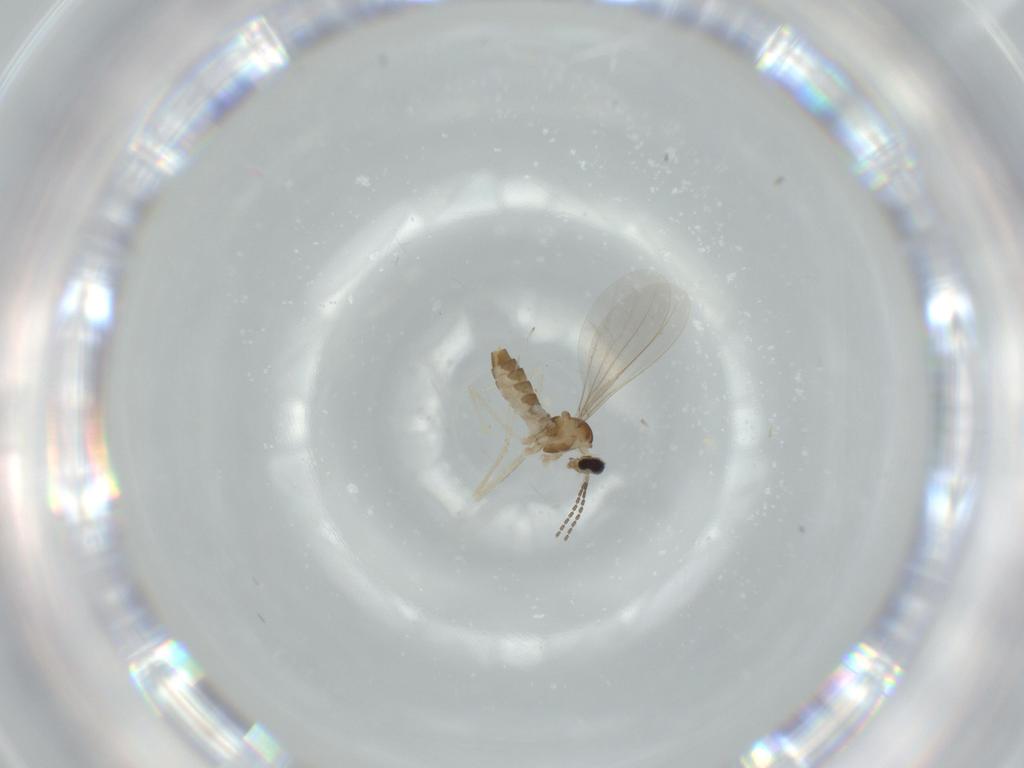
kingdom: Animalia
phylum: Arthropoda
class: Insecta
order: Diptera
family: Cecidomyiidae
